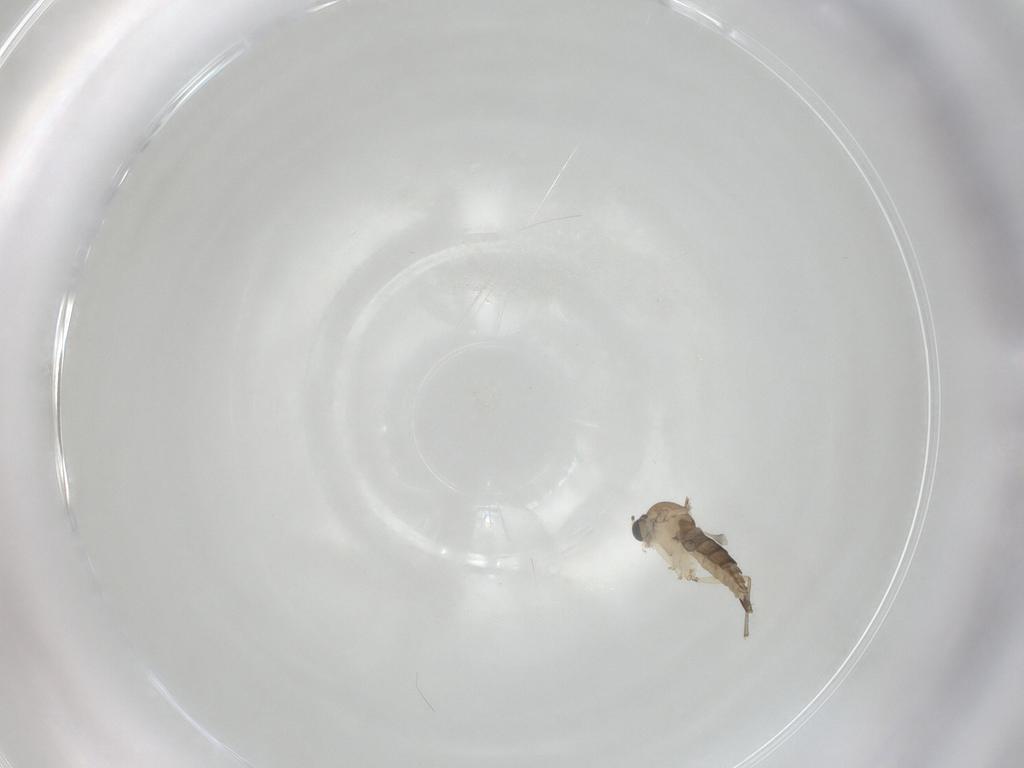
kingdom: Animalia
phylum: Arthropoda
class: Insecta
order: Diptera
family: Sciaridae
